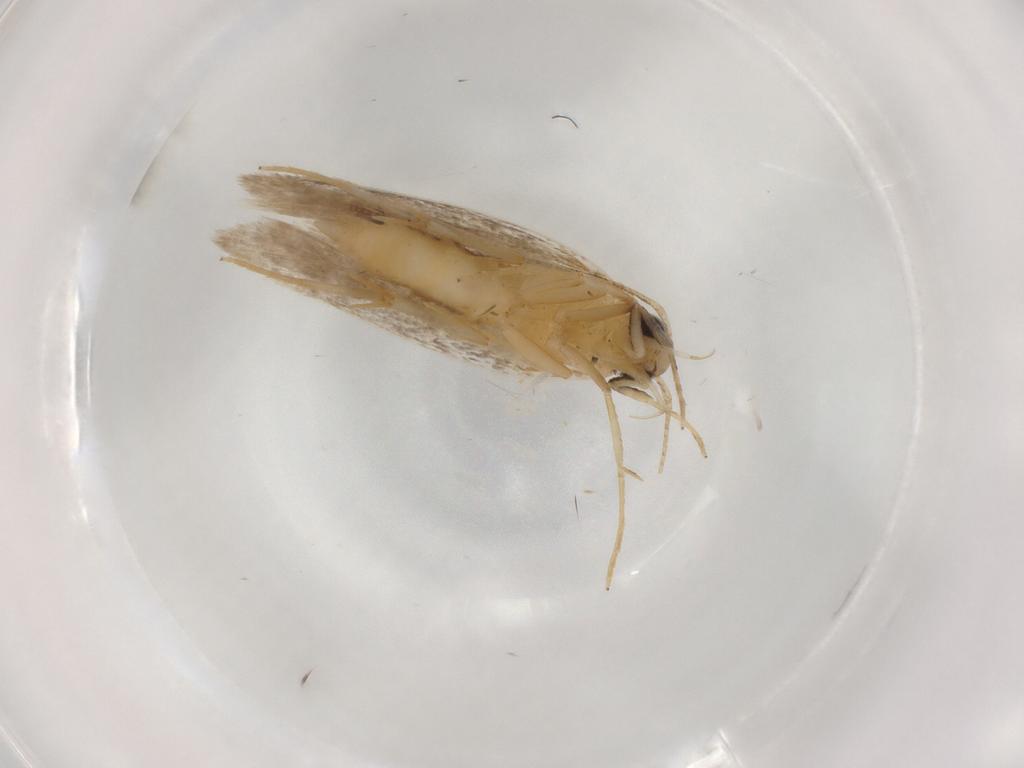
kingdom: Animalia
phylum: Arthropoda
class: Insecta
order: Lepidoptera
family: Autostichidae
